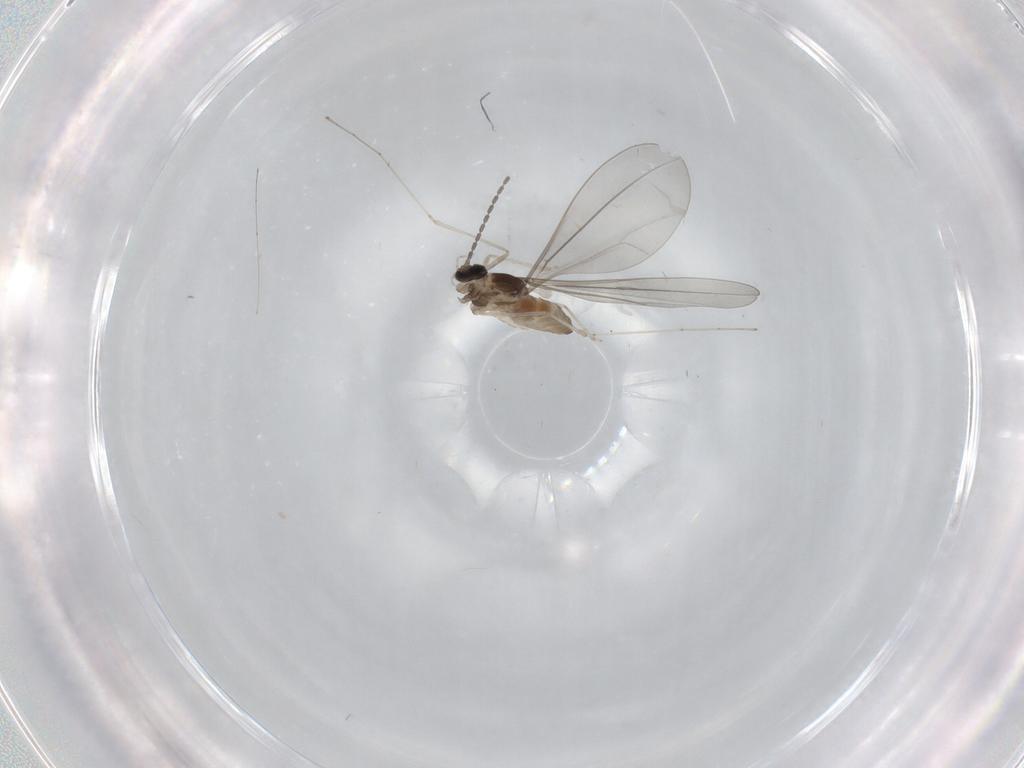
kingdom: Animalia
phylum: Arthropoda
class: Insecta
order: Diptera
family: Cecidomyiidae
